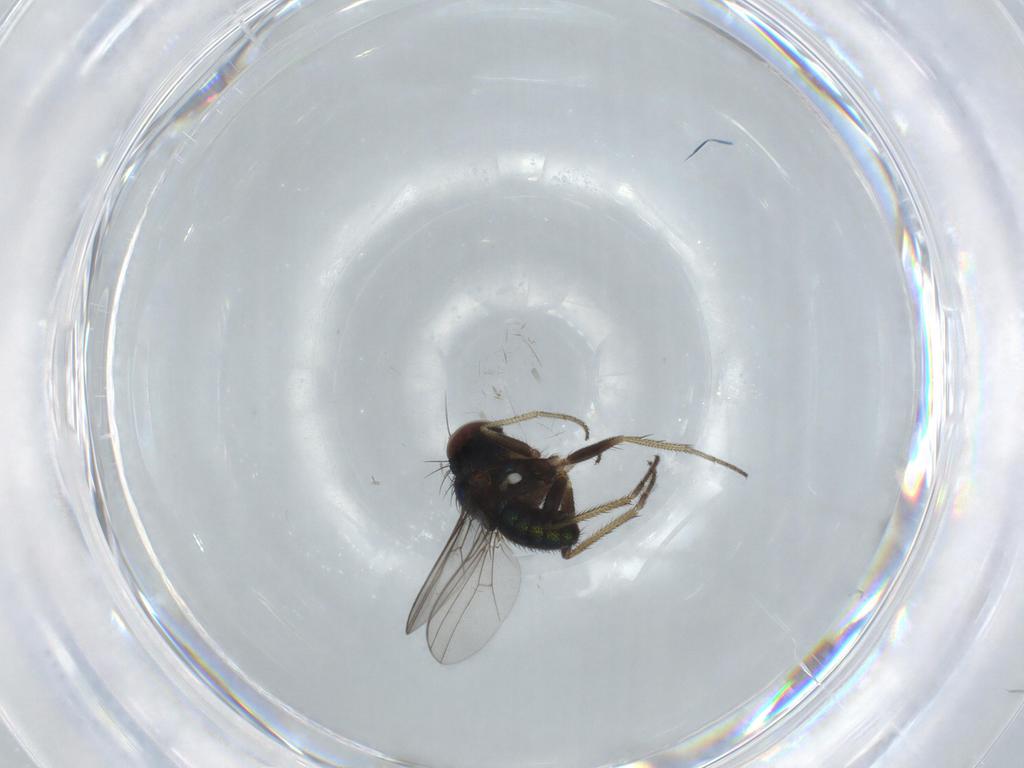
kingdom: Animalia
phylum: Arthropoda
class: Insecta
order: Diptera
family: Dolichopodidae
